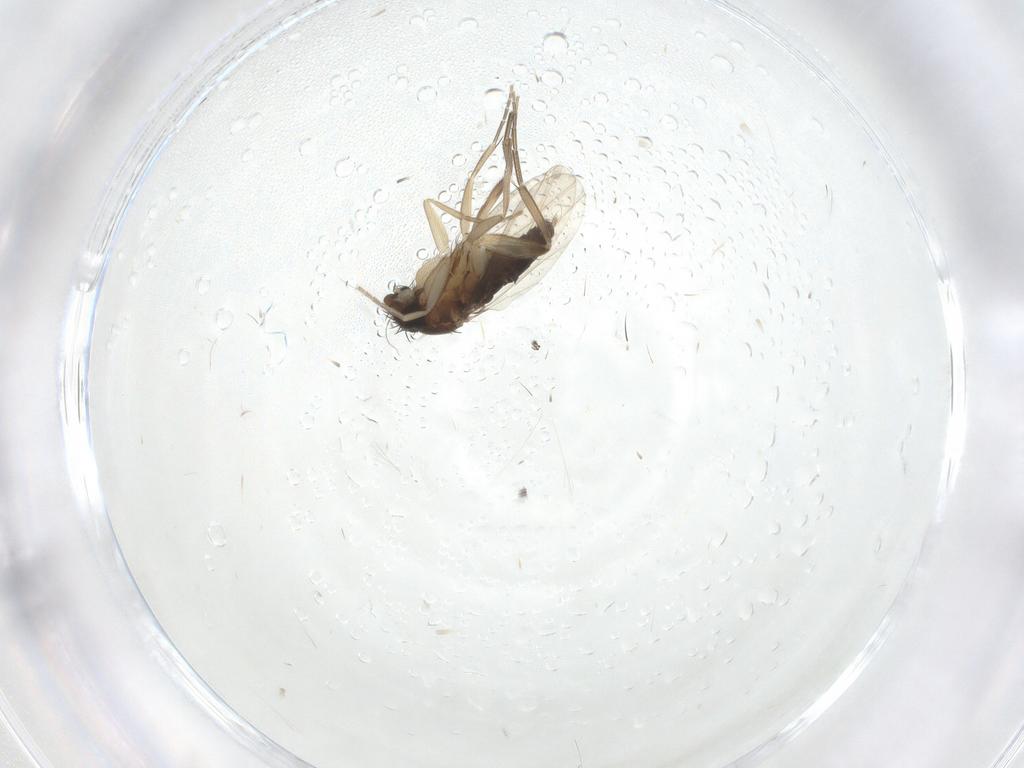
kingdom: Animalia
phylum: Arthropoda
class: Insecta
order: Diptera
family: Phoridae
